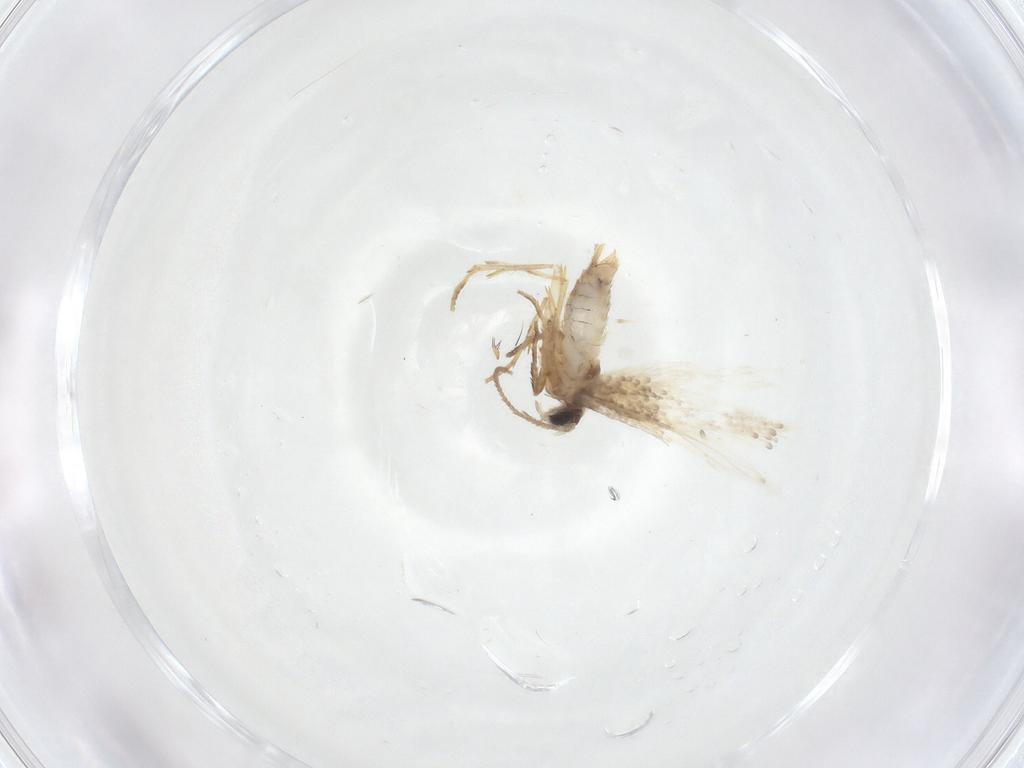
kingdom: Animalia
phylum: Arthropoda
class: Insecta
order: Lepidoptera
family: Nepticulidae
